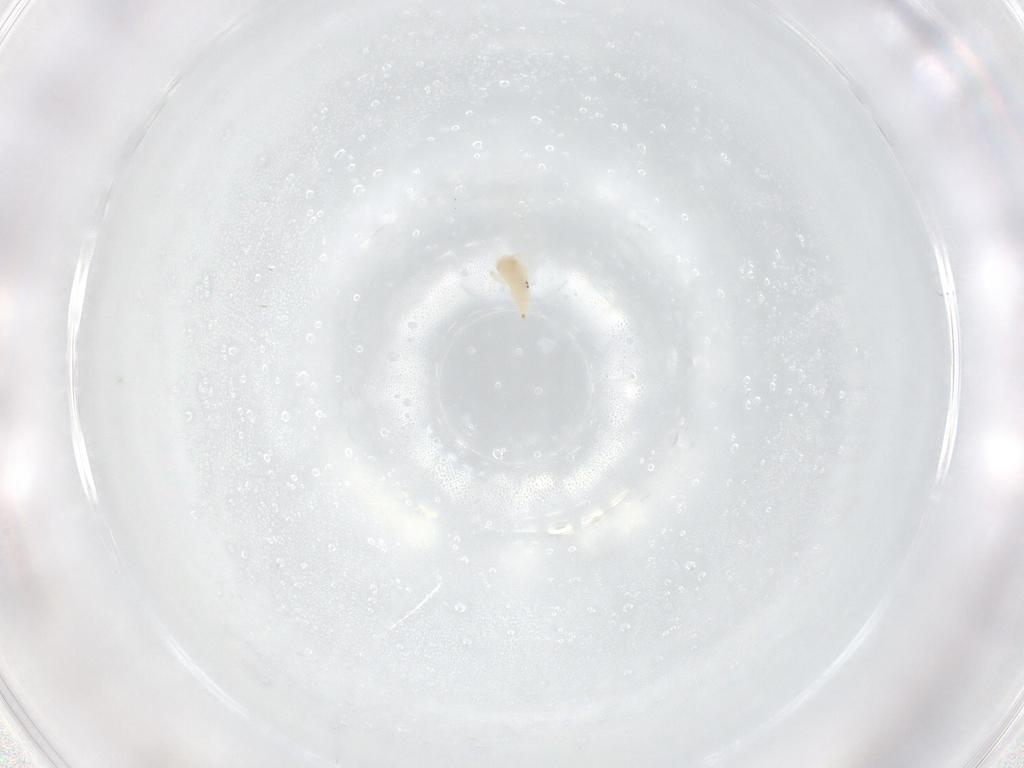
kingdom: Animalia
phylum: Arthropoda
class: Arachnida
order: Trombidiformes
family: Bdellidae
